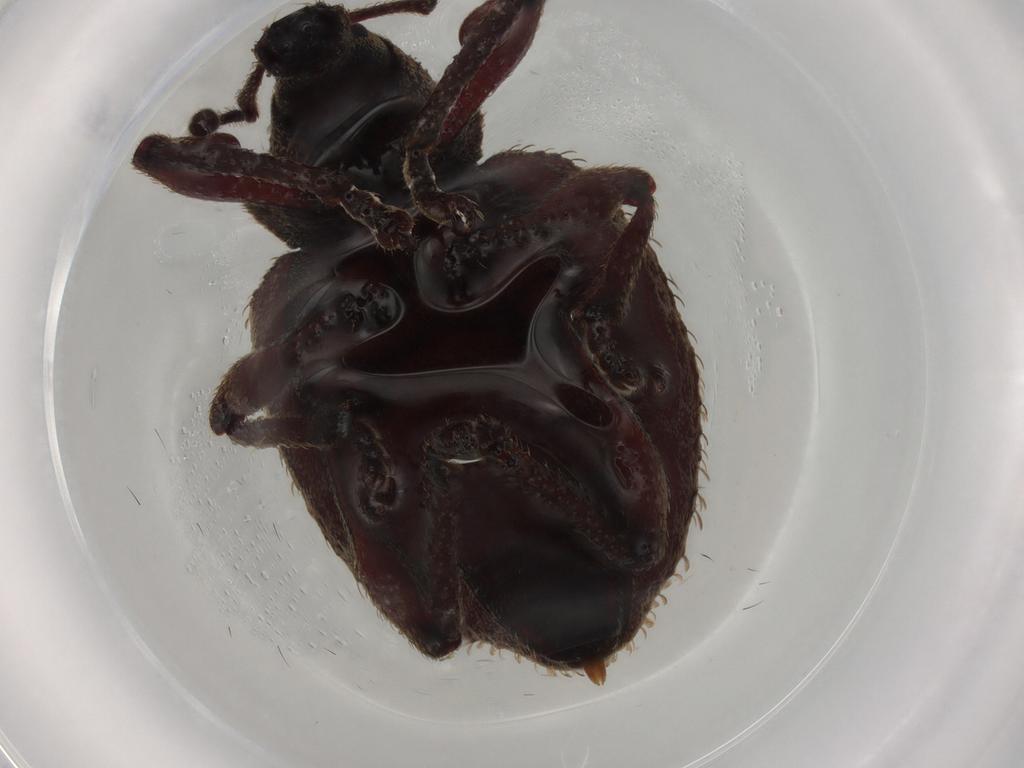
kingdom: Animalia
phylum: Arthropoda
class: Insecta
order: Coleoptera
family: Curculionidae
